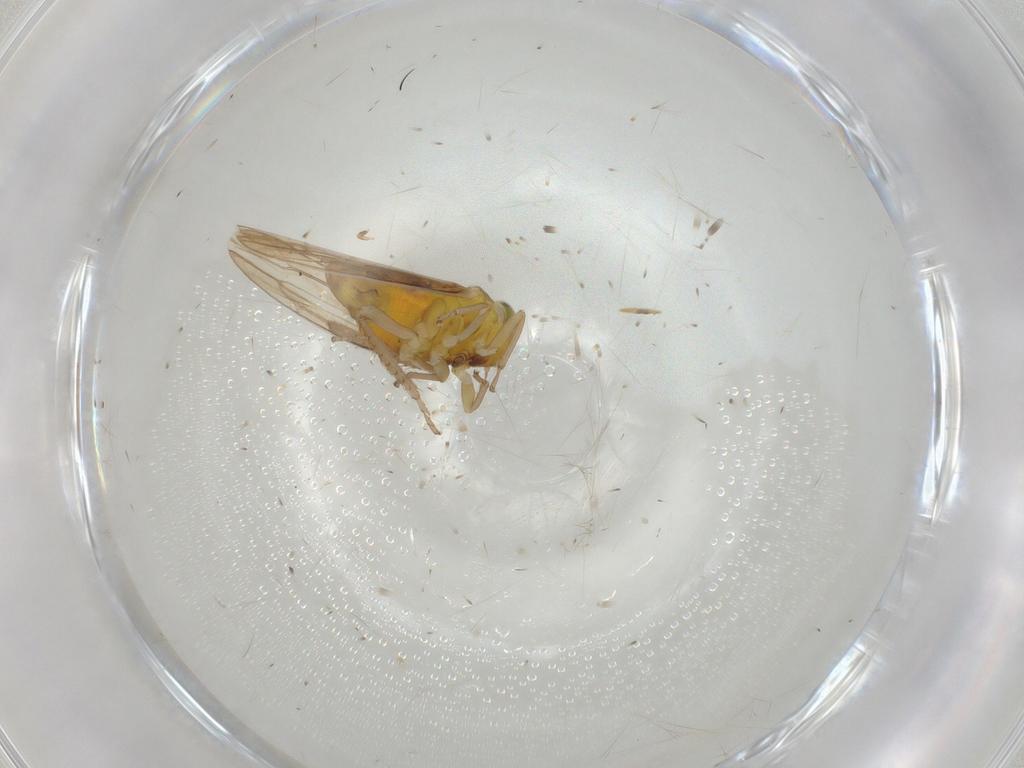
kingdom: Animalia
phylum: Arthropoda
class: Insecta
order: Hemiptera
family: Cicadellidae
